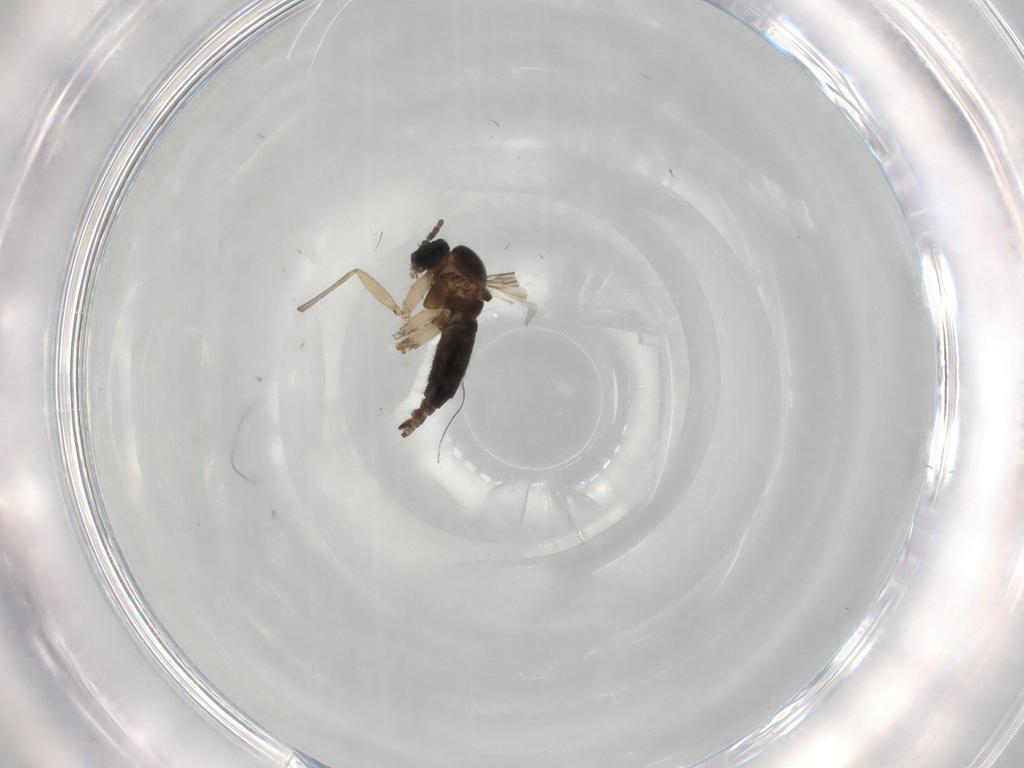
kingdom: Animalia
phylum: Arthropoda
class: Insecta
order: Diptera
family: Sciaridae
